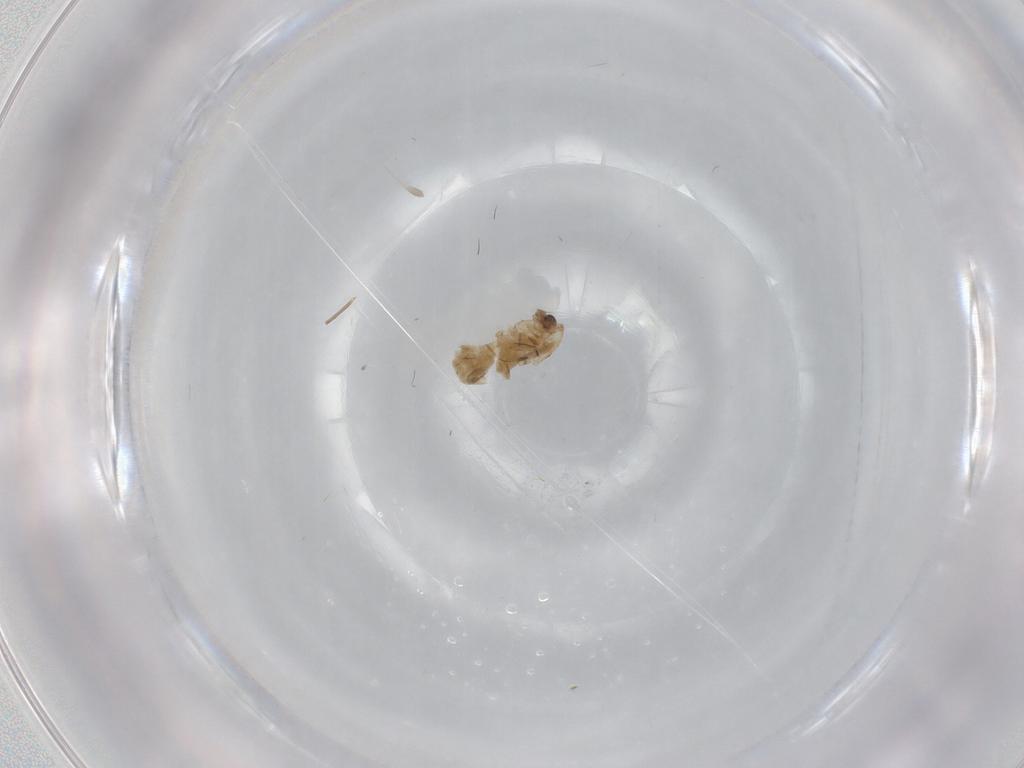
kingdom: Animalia
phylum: Arthropoda
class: Insecta
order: Diptera
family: Chironomidae
